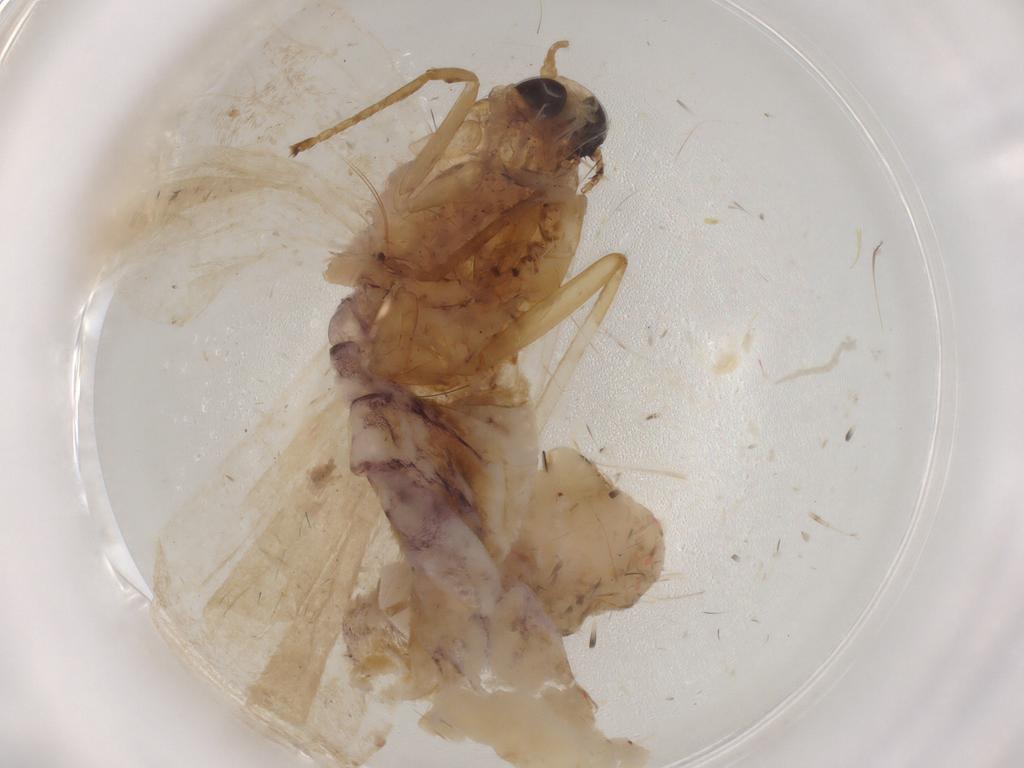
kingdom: Animalia
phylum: Arthropoda
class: Insecta
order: Lepidoptera
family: Erebidae
